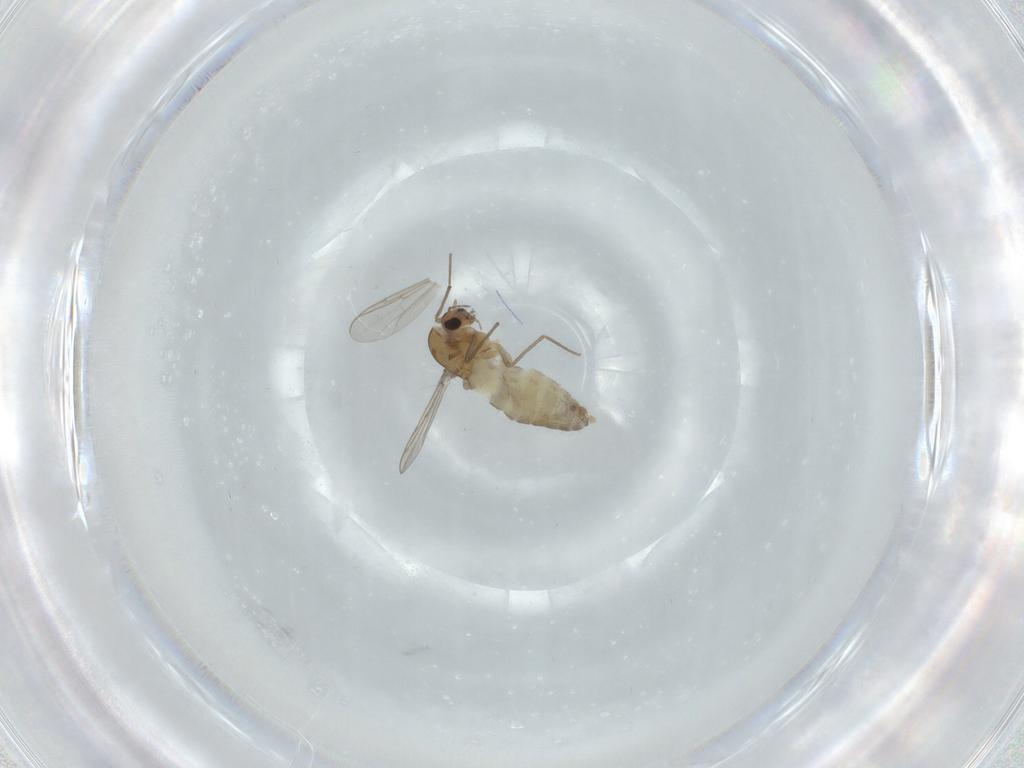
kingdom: Animalia
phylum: Arthropoda
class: Insecta
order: Diptera
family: Chironomidae
